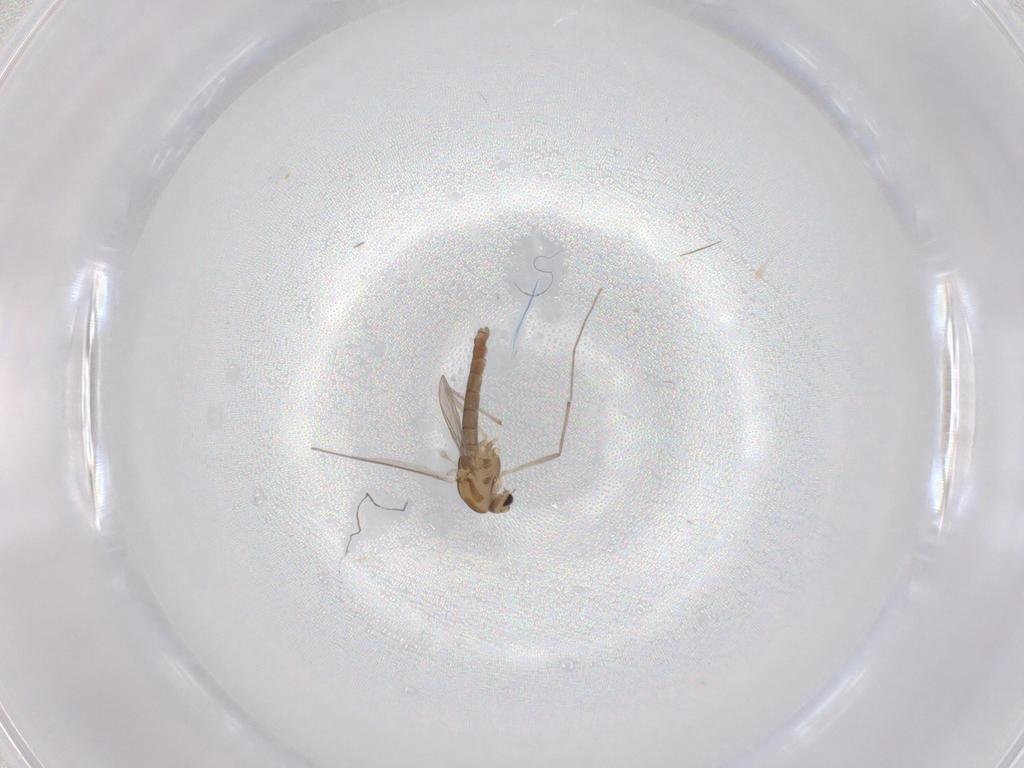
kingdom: Animalia
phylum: Arthropoda
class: Insecta
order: Diptera
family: Chironomidae
